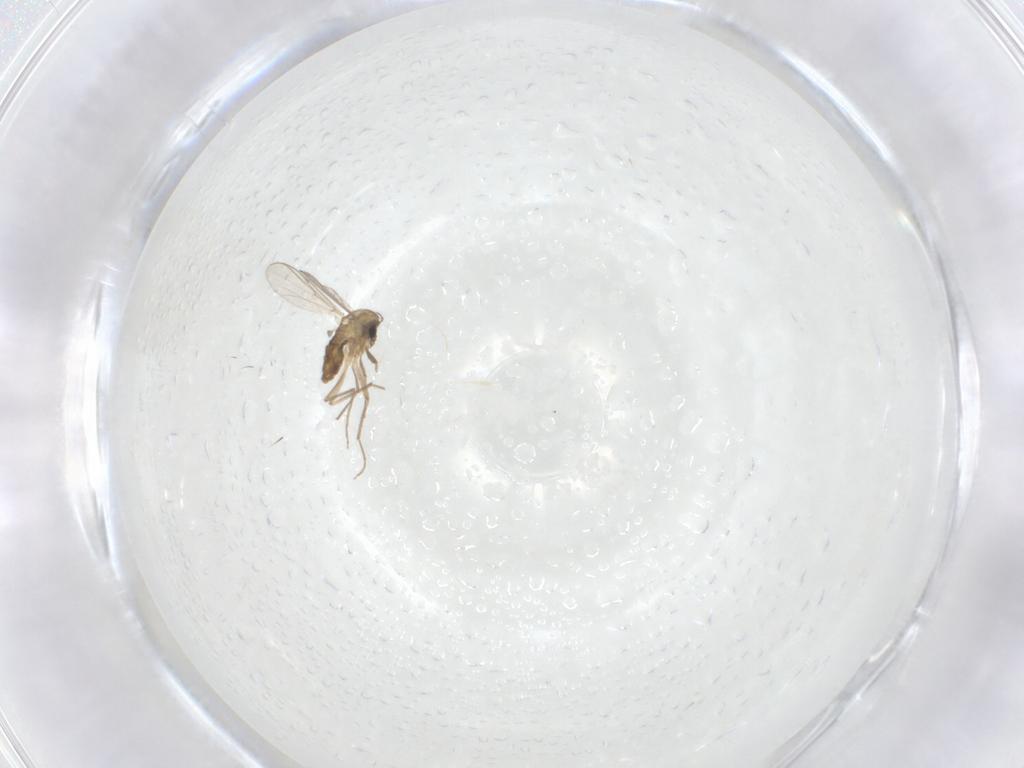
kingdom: Animalia
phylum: Arthropoda
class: Insecta
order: Diptera
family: Chironomidae
